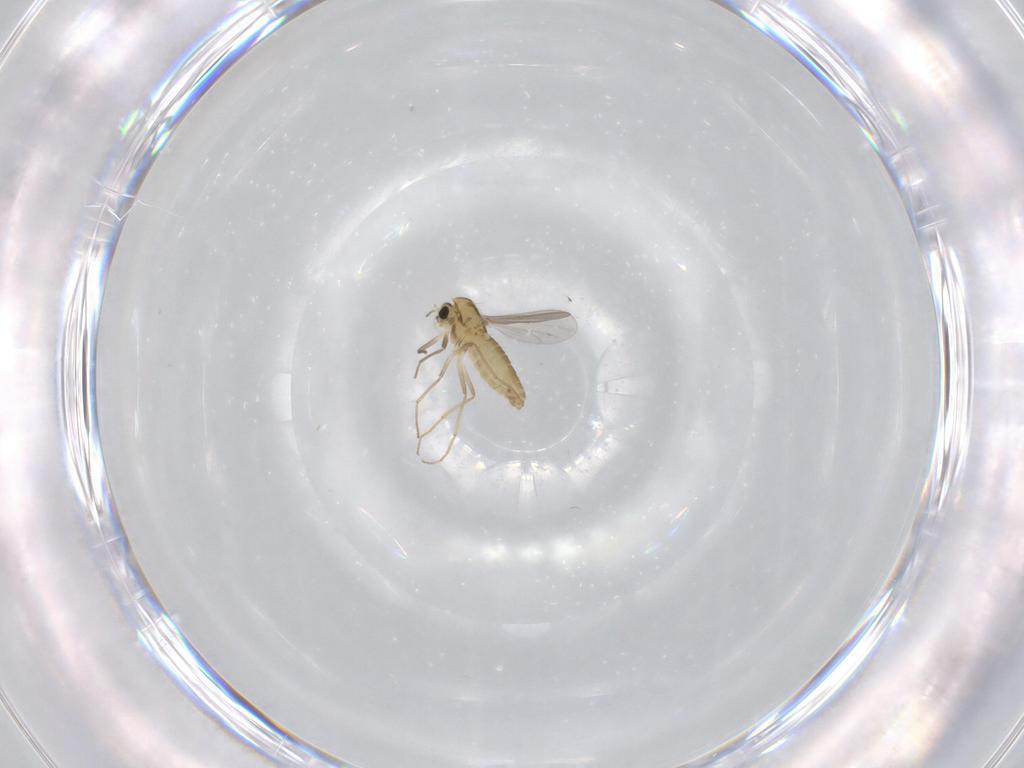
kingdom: Animalia
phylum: Arthropoda
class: Insecta
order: Diptera
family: Chironomidae
